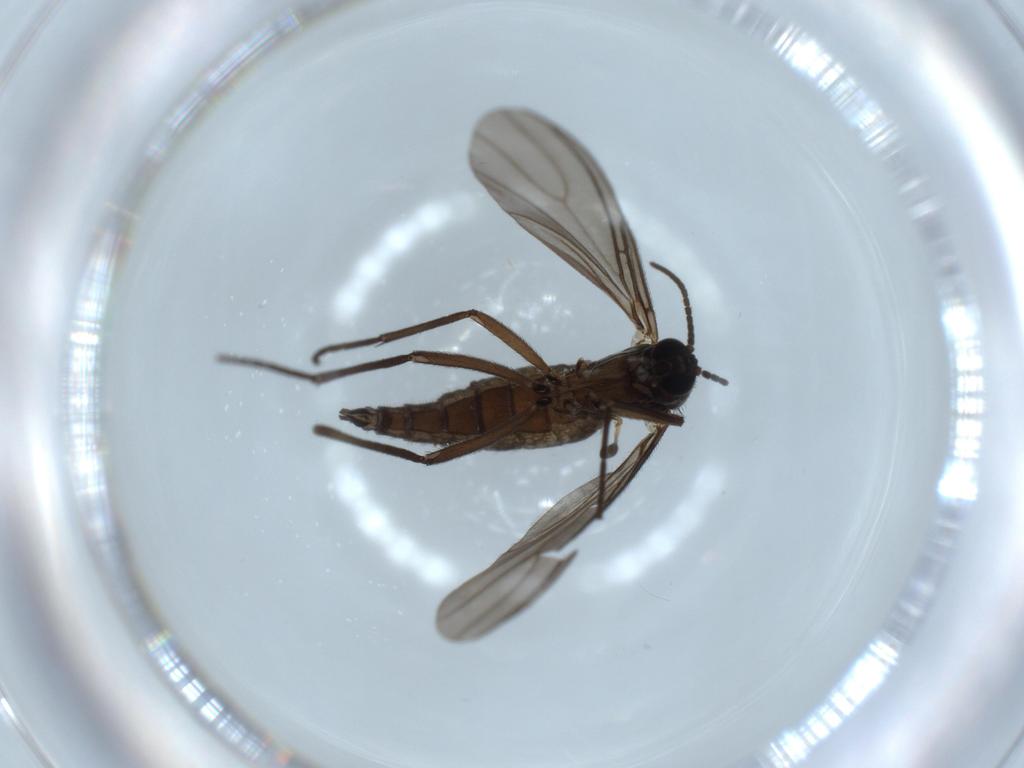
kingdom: Animalia
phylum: Arthropoda
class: Insecta
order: Diptera
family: Sciaridae
